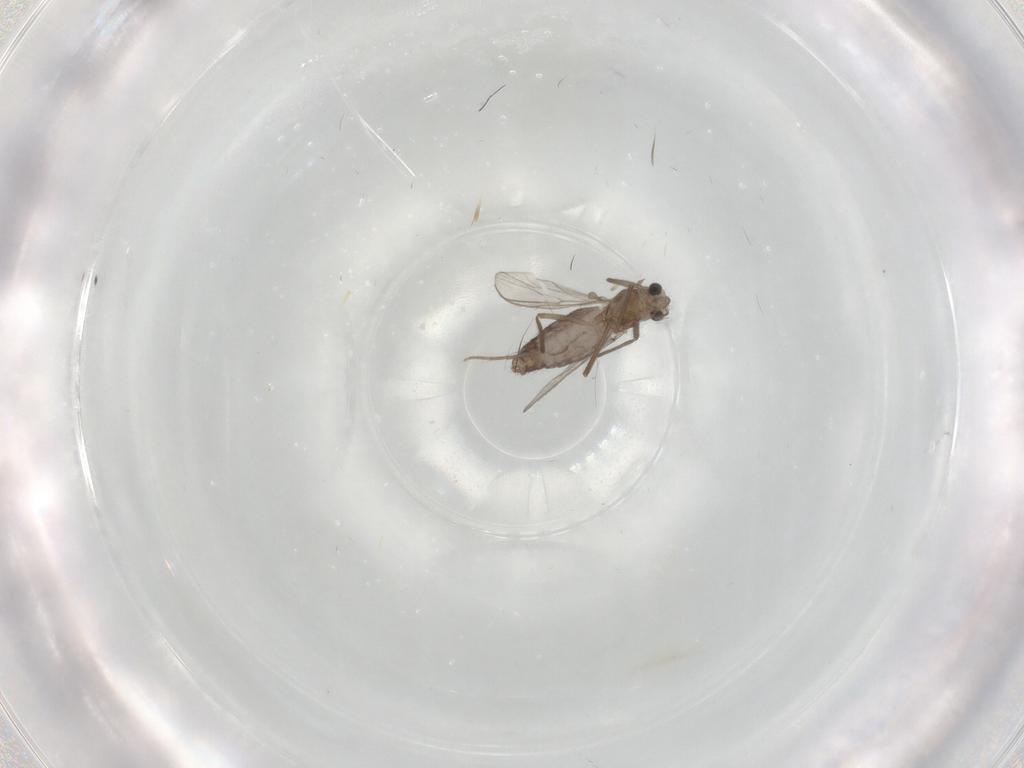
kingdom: Animalia
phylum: Arthropoda
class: Insecta
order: Diptera
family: Chironomidae
